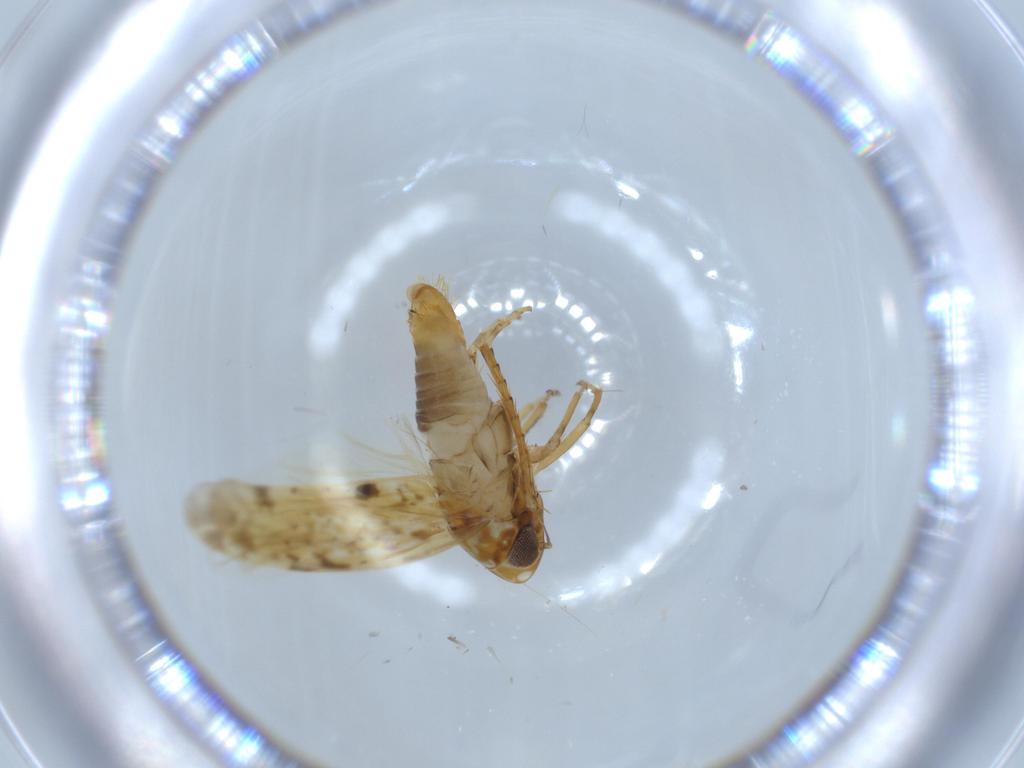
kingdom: Animalia
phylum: Arthropoda
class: Insecta
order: Hemiptera
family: Cicadellidae
